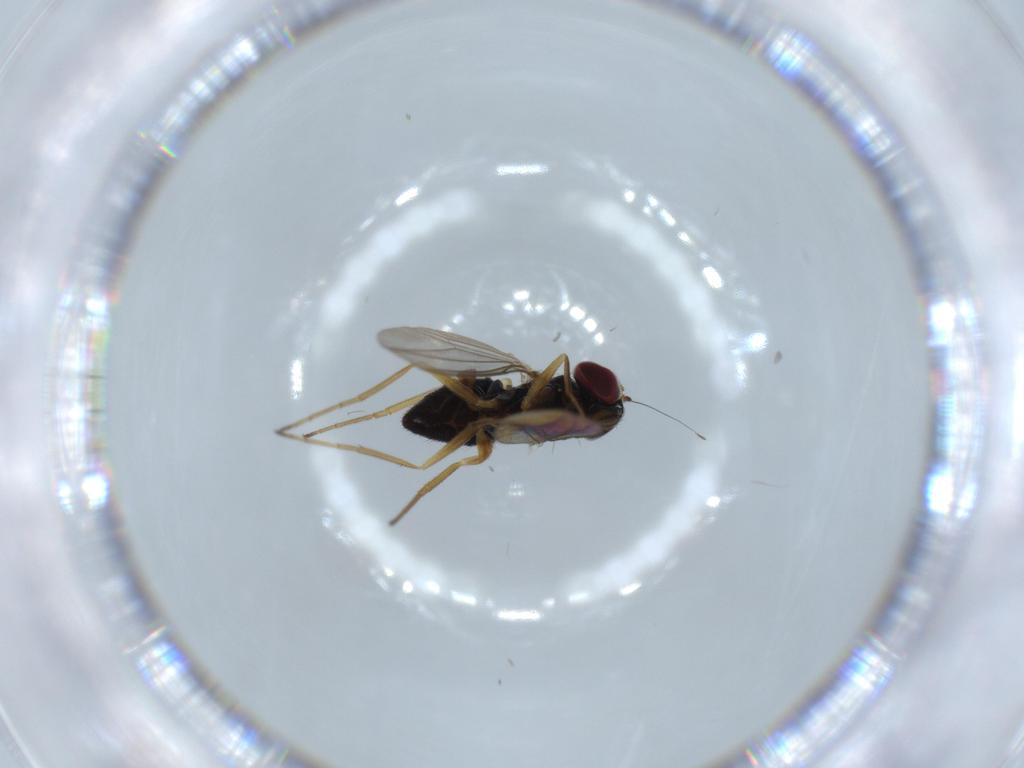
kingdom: Animalia
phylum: Arthropoda
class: Insecta
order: Diptera
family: Dolichopodidae
